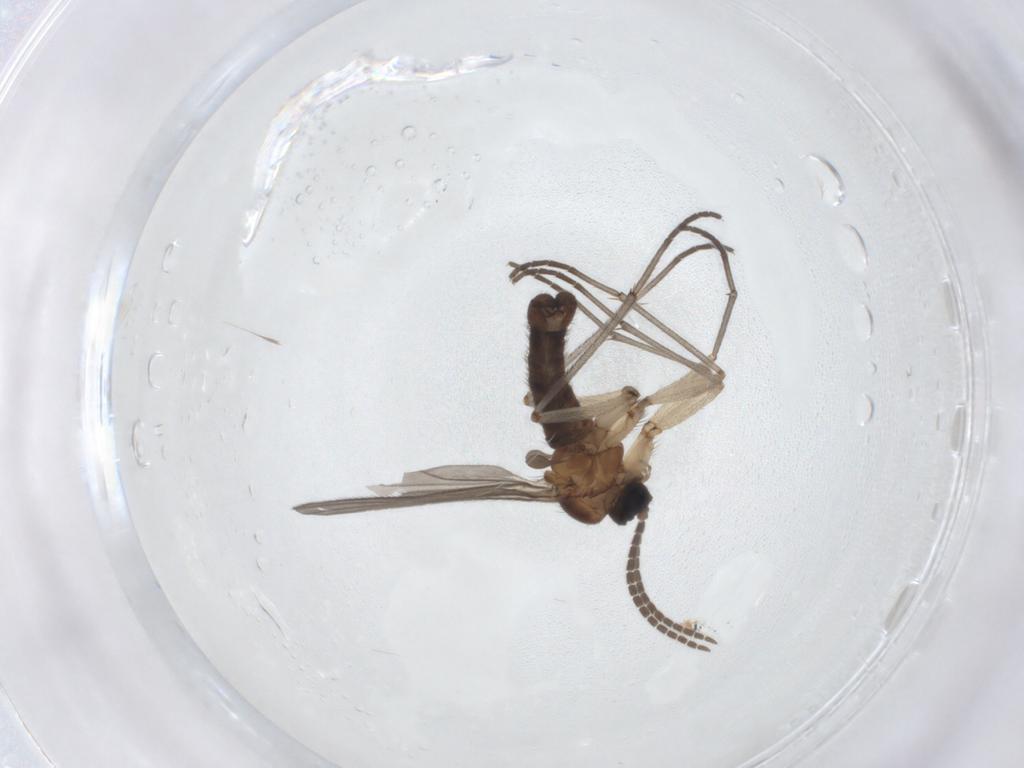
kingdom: Animalia
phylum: Arthropoda
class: Insecta
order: Diptera
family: Sciaridae
